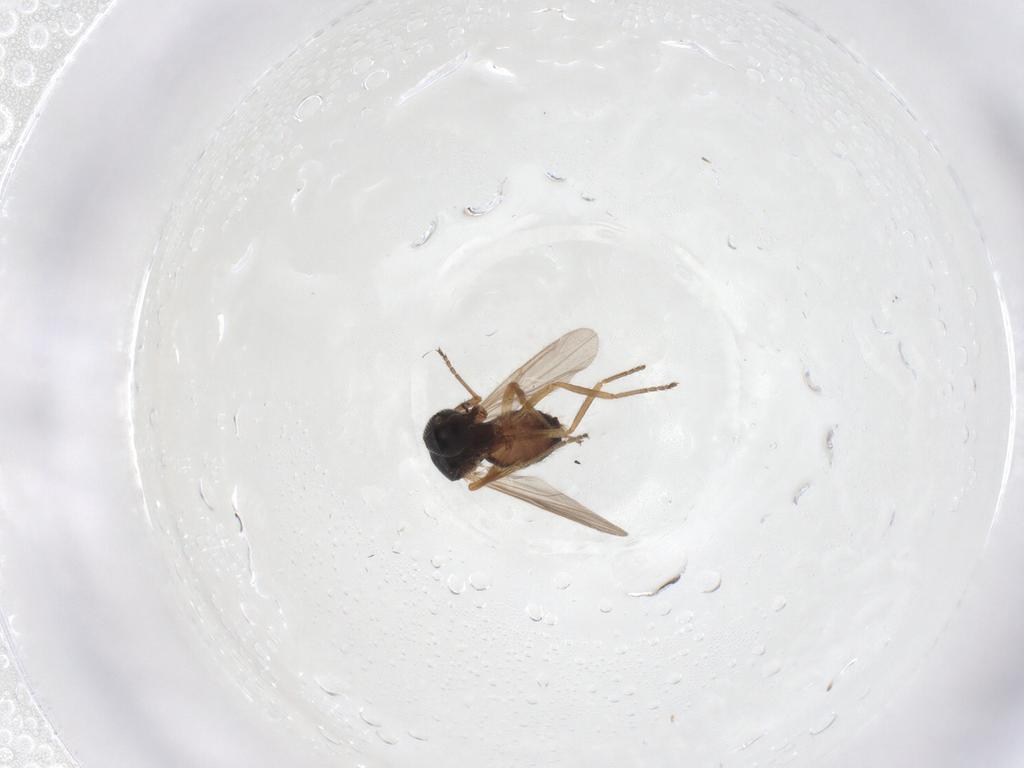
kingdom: Animalia
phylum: Arthropoda
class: Insecta
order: Diptera
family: Ceratopogonidae
